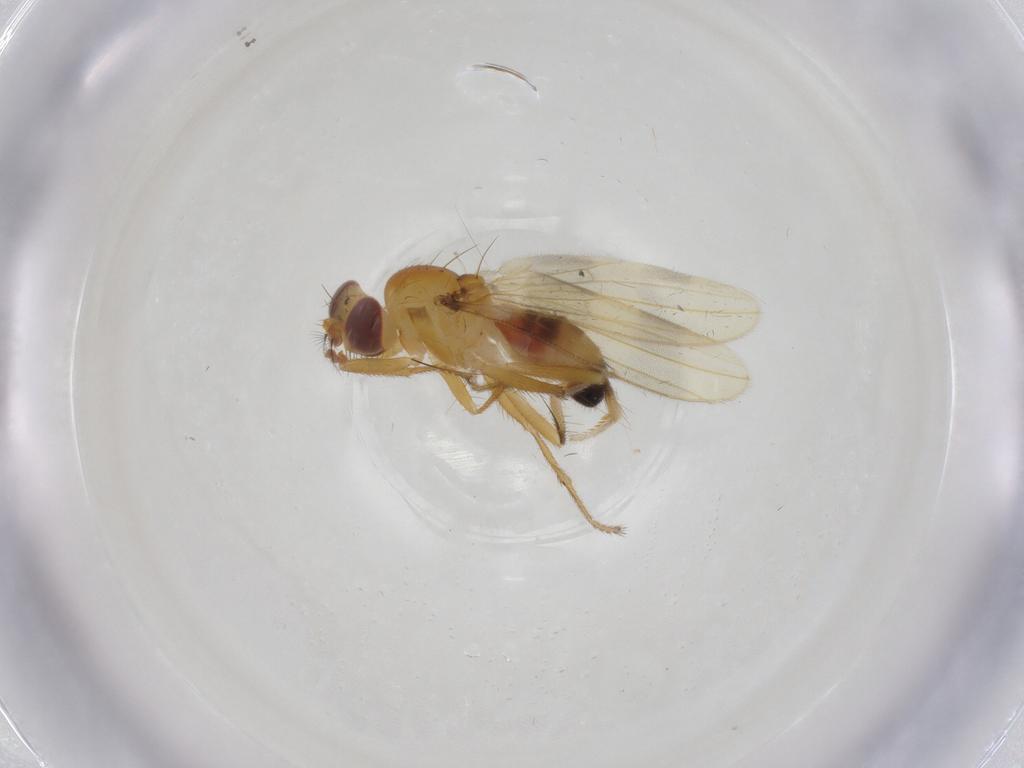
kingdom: Animalia
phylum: Arthropoda
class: Insecta
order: Diptera
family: Periscelididae
